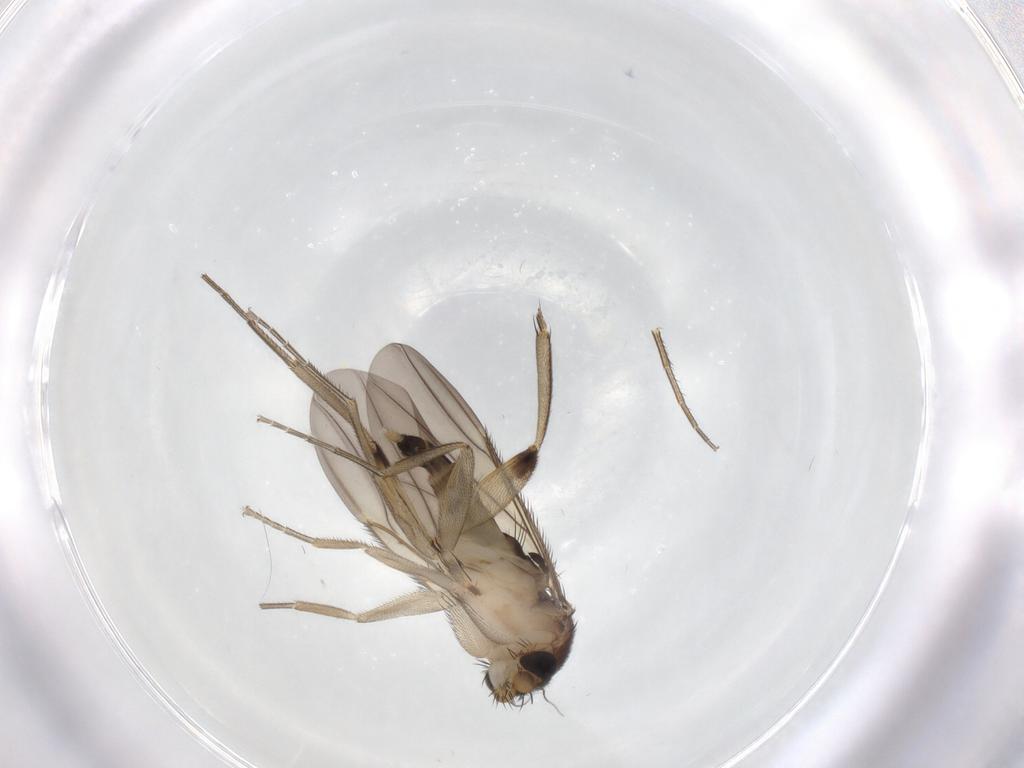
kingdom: Animalia
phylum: Arthropoda
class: Insecta
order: Diptera
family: Phoridae
